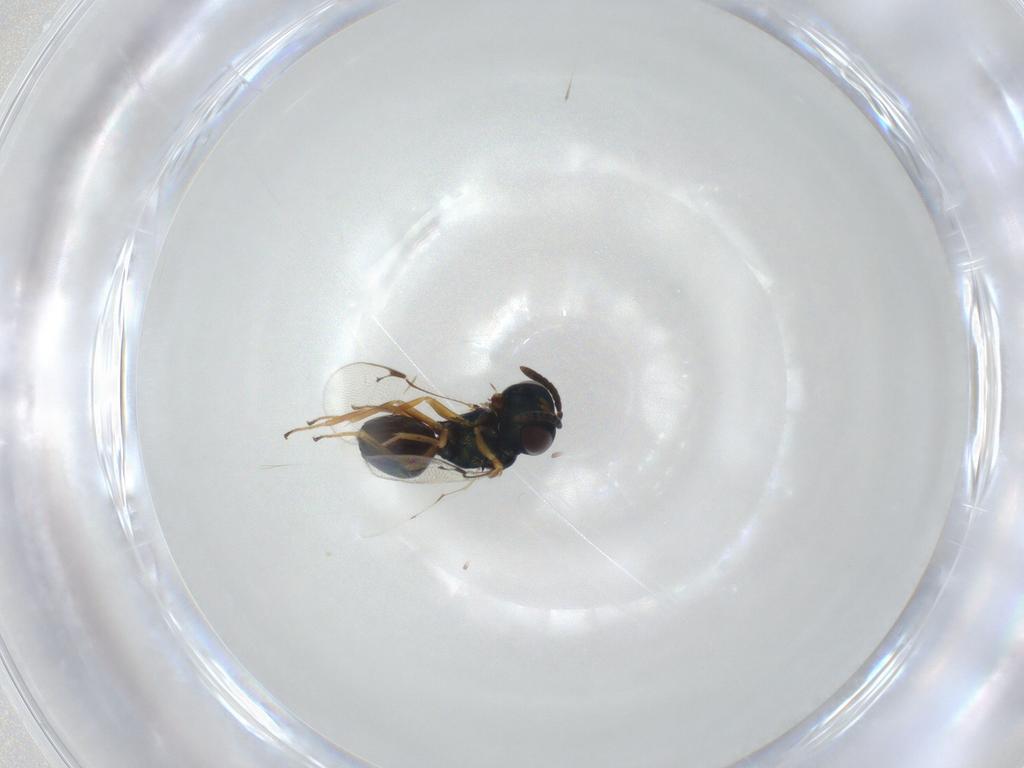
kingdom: Animalia
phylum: Arthropoda
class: Insecta
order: Hymenoptera
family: Pteromalidae
